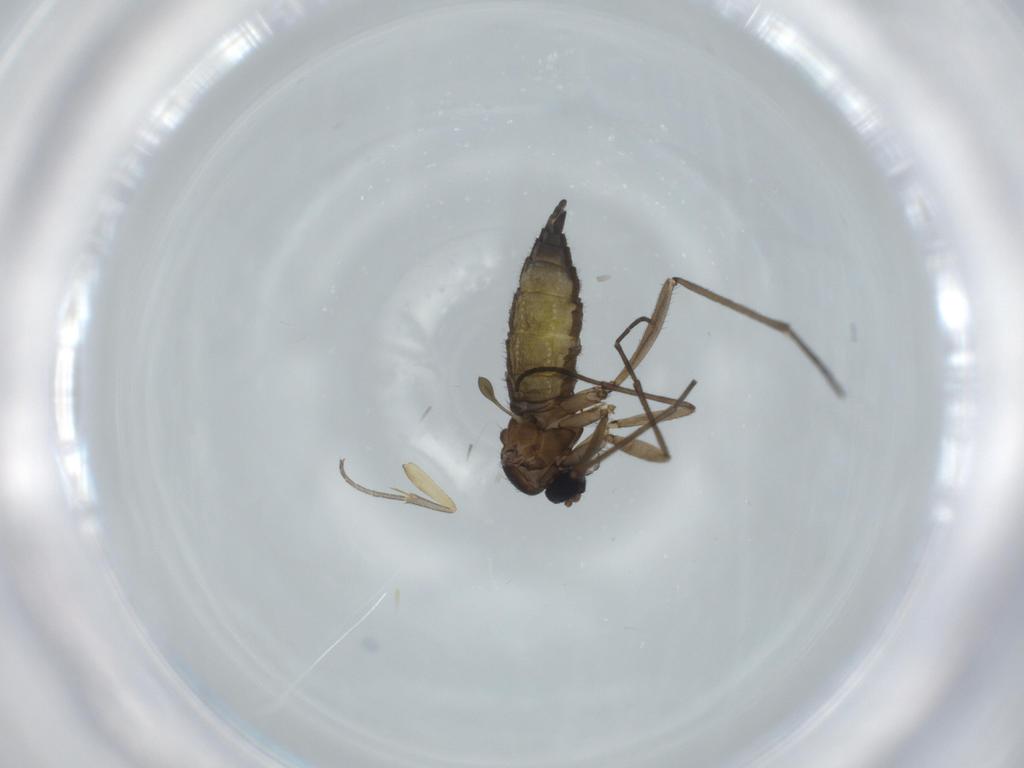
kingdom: Animalia
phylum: Arthropoda
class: Insecta
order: Diptera
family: Sciaridae
